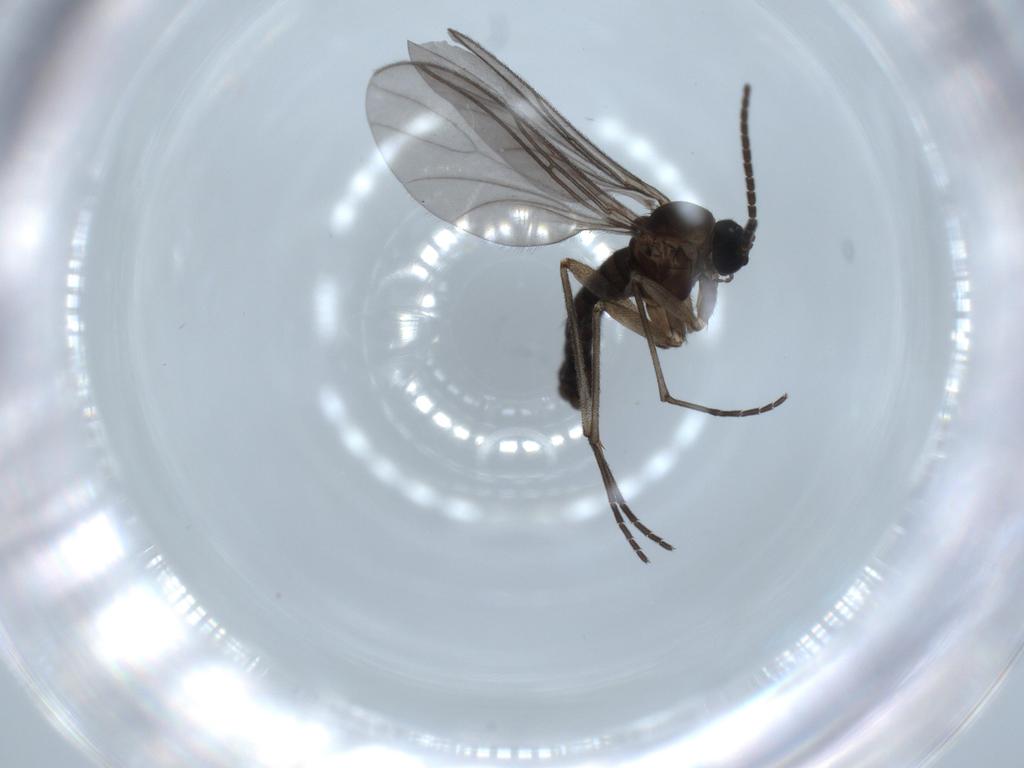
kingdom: Animalia
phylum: Arthropoda
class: Insecta
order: Diptera
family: Sciaridae
